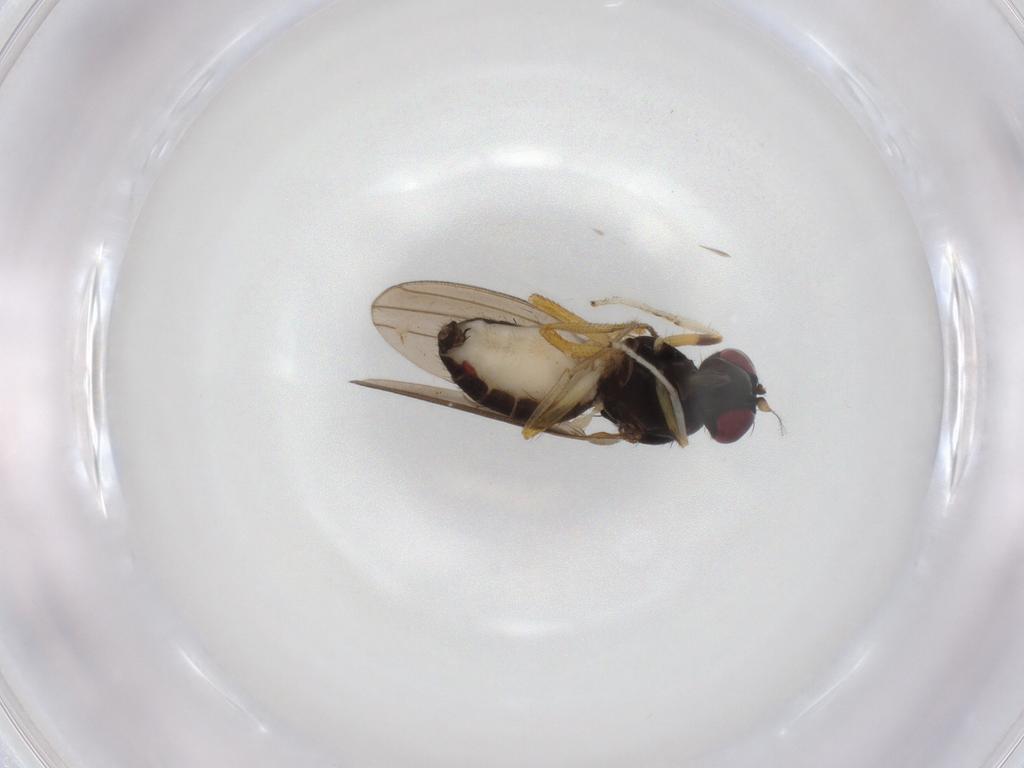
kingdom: Animalia
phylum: Arthropoda
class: Insecta
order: Diptera
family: Lauxaniidae
